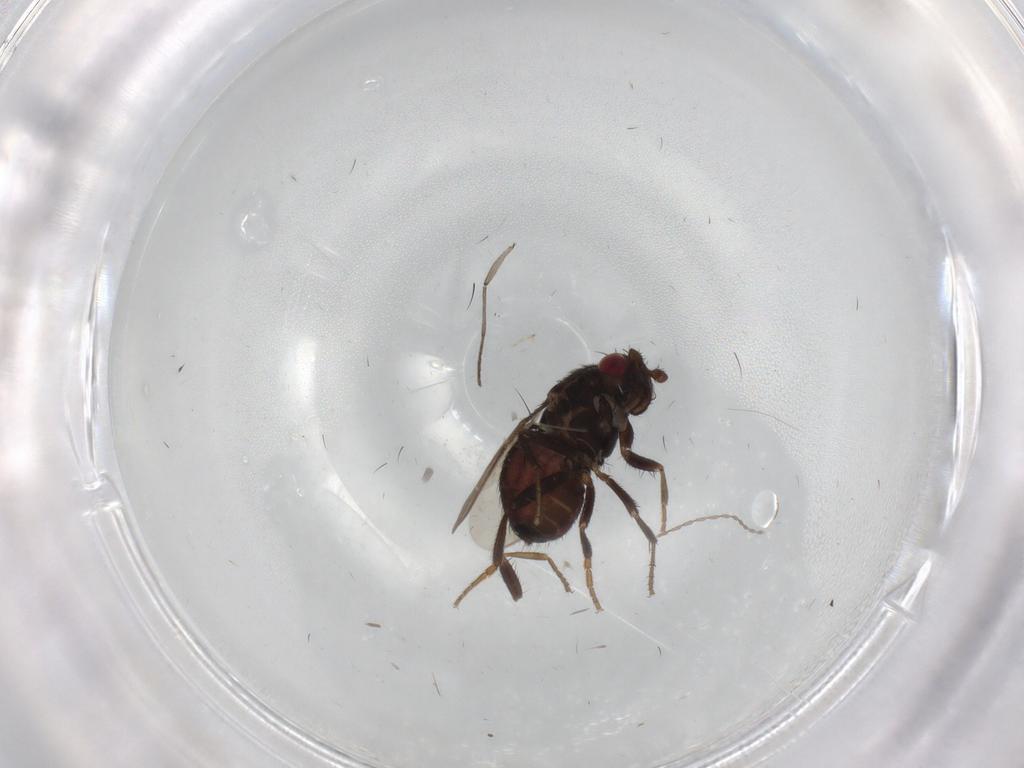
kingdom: Animalia
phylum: Arthropoda
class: Insecta
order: Diptera
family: Sphaeroceridae
